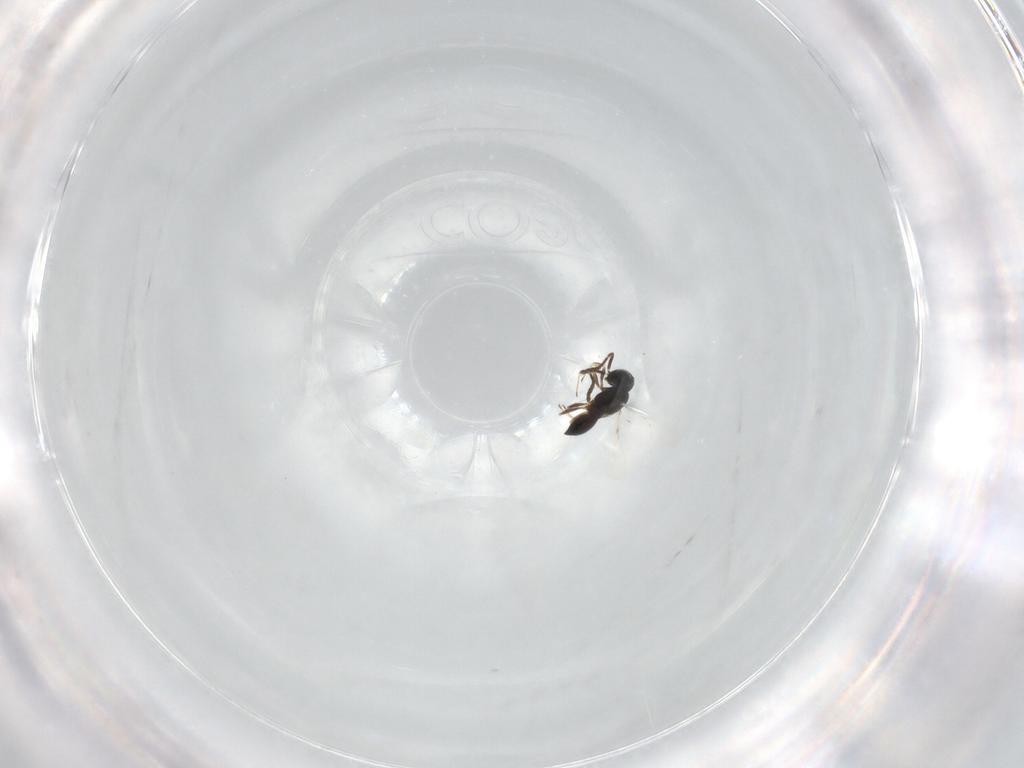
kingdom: Animalia
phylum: Arthropoda
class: Insecta
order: Hymenoptera
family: Scelionidae
